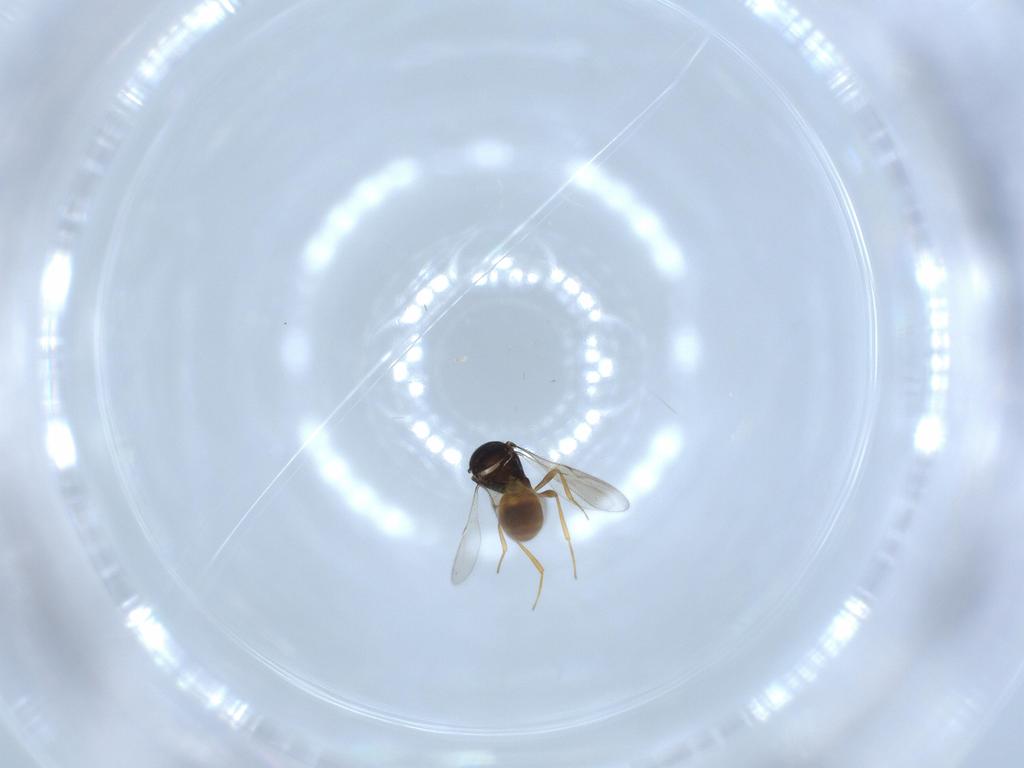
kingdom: Animalia
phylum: Arthropoda
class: Insecta
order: Hymenoptera
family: Scelionidae
